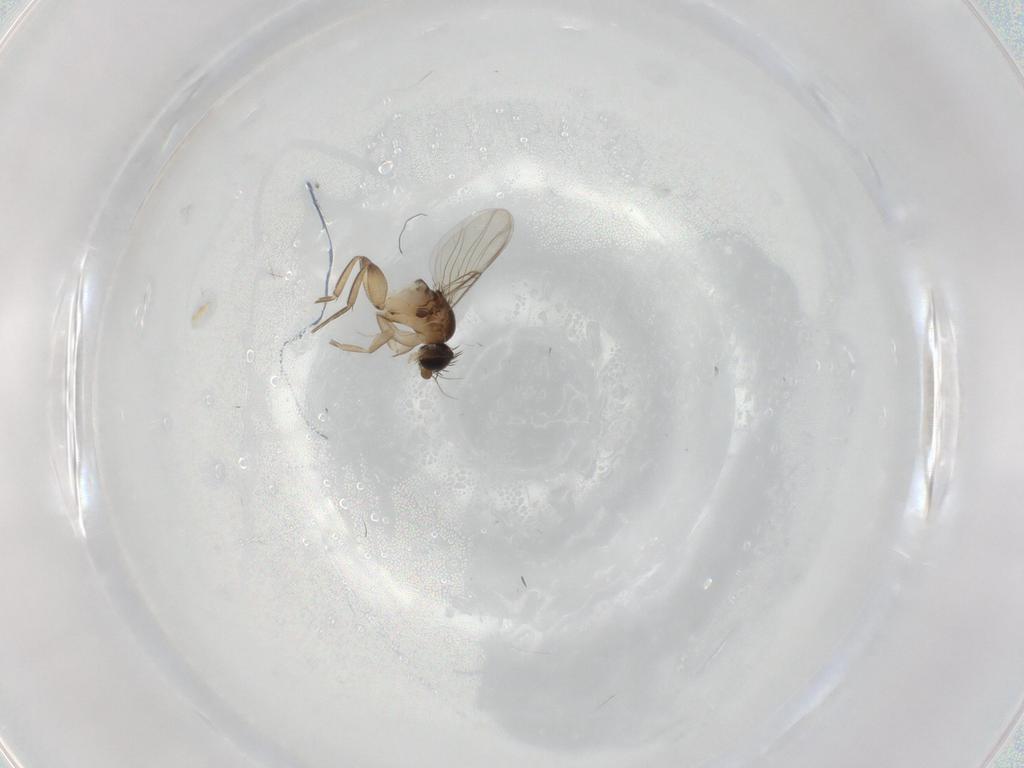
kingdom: Animalia
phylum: Arthropoda
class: Insecta
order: Diptera
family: Phoridae
